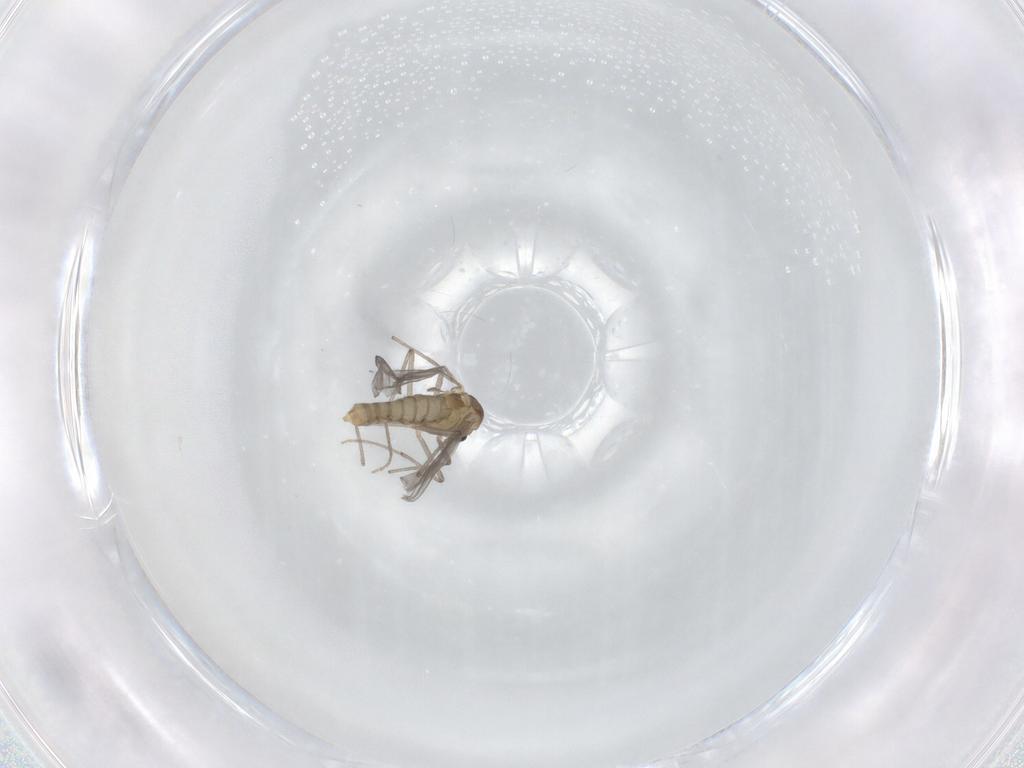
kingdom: Animalia
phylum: Arthropoda
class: Insecta
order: Diptera
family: Chironomidae
